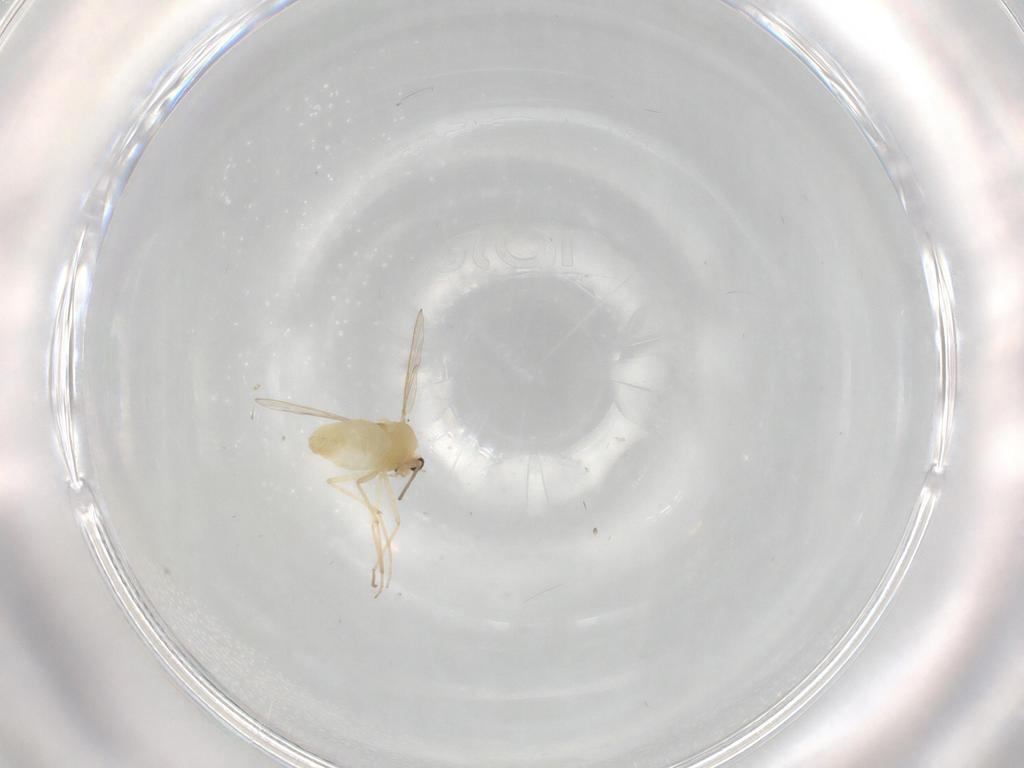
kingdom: Animalia
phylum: Arthropoda
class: Insecta
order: Diptera
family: Chironomidae
